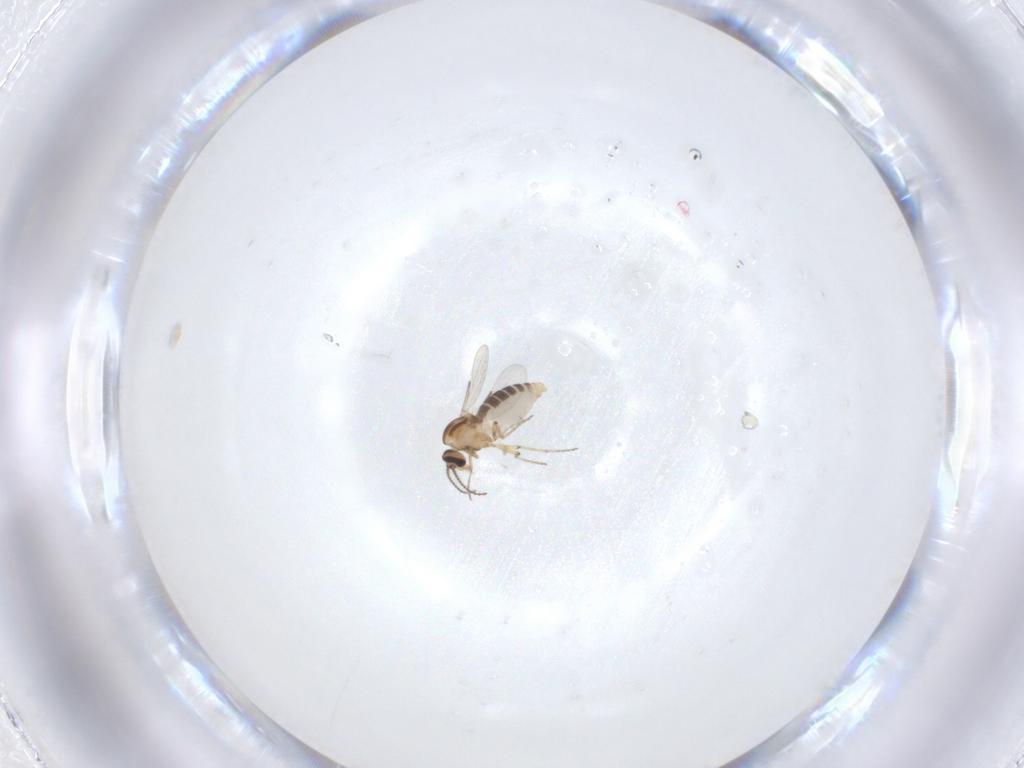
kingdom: Animalia
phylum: Arthropoda
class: Insecta
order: Diptera
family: Ceratopogonidae
